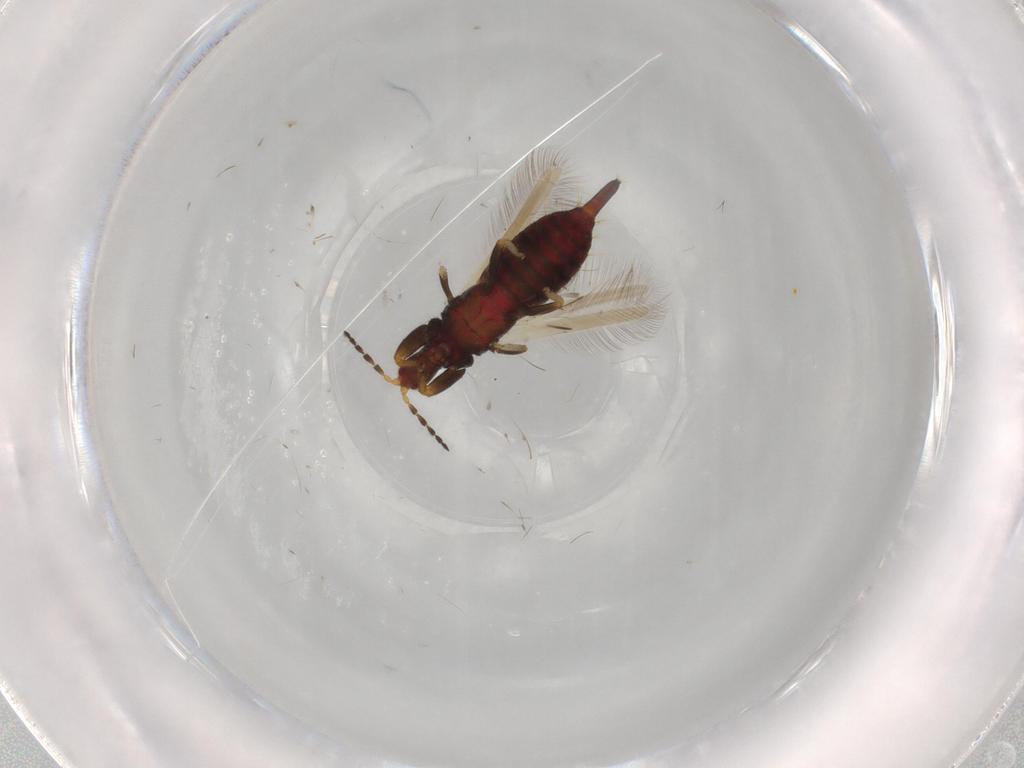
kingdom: Animalia
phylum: Arthropoda
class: Insecta
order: Thysanoptera
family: Phlaeothripidae
